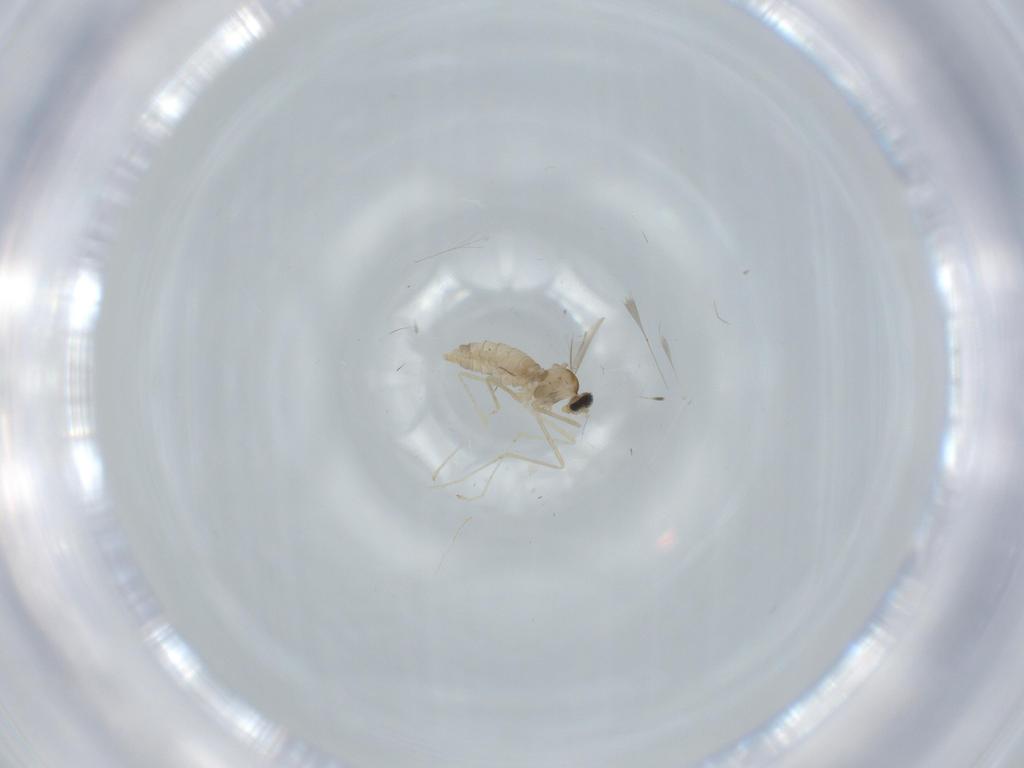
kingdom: Animalia
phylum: Arthropoda
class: Insecta
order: Diptera
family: Cecidomyiidae
